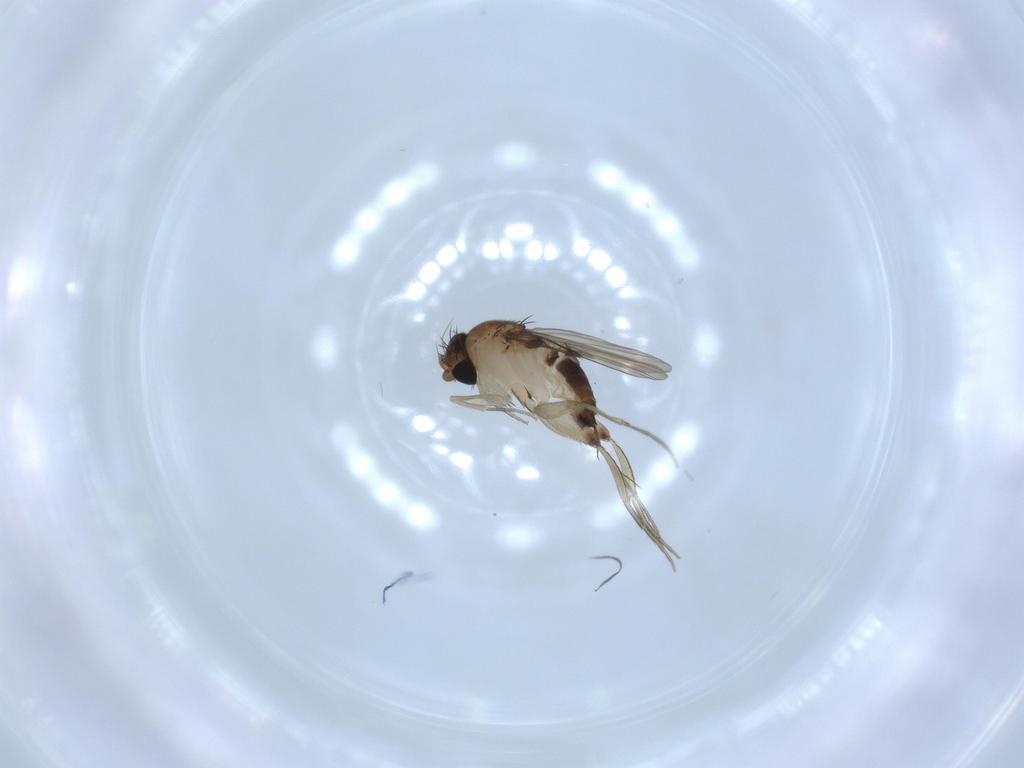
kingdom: Animalia
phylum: Arthropoda
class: Insecta
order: Diptera
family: Phoridae
